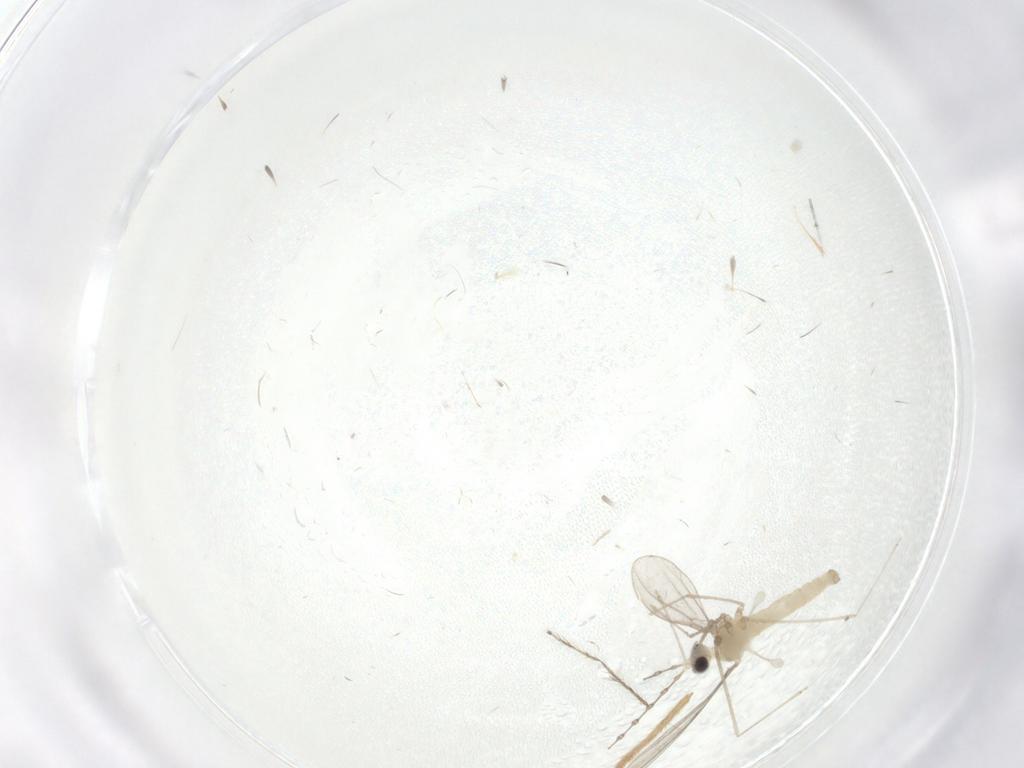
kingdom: Animalia
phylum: Arthropoda
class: Insecta
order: Diptera
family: Cecidomyiidae
